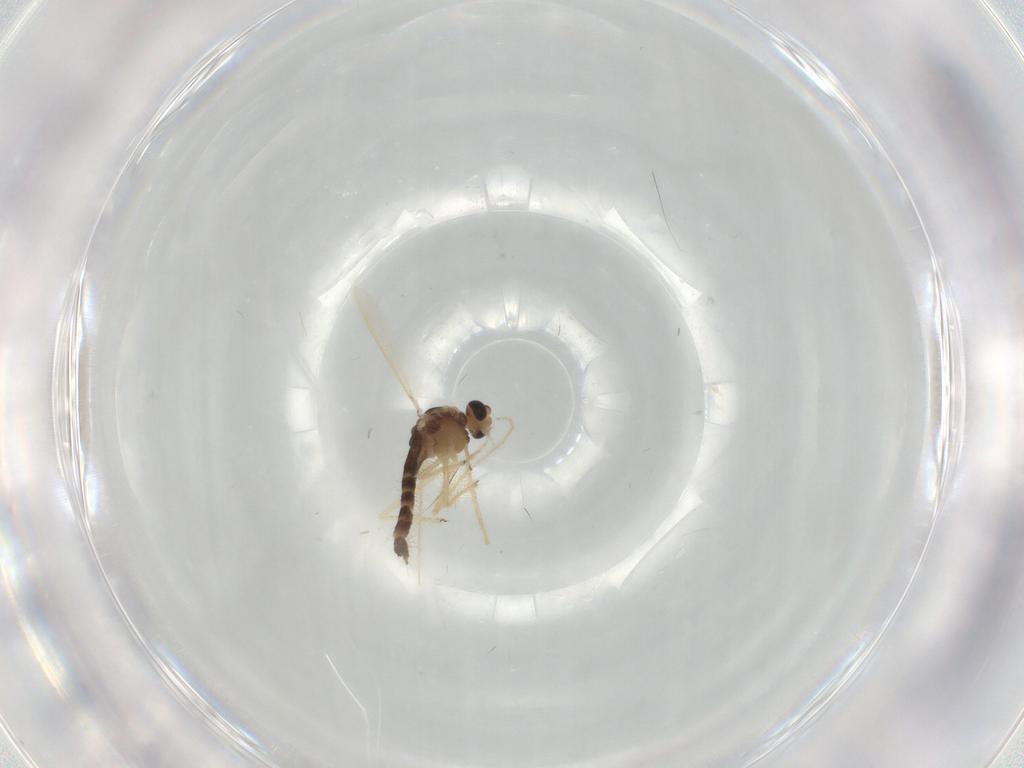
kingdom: Animalia
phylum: Arthropoda
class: Insecta
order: Diptera
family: Chironomidae
